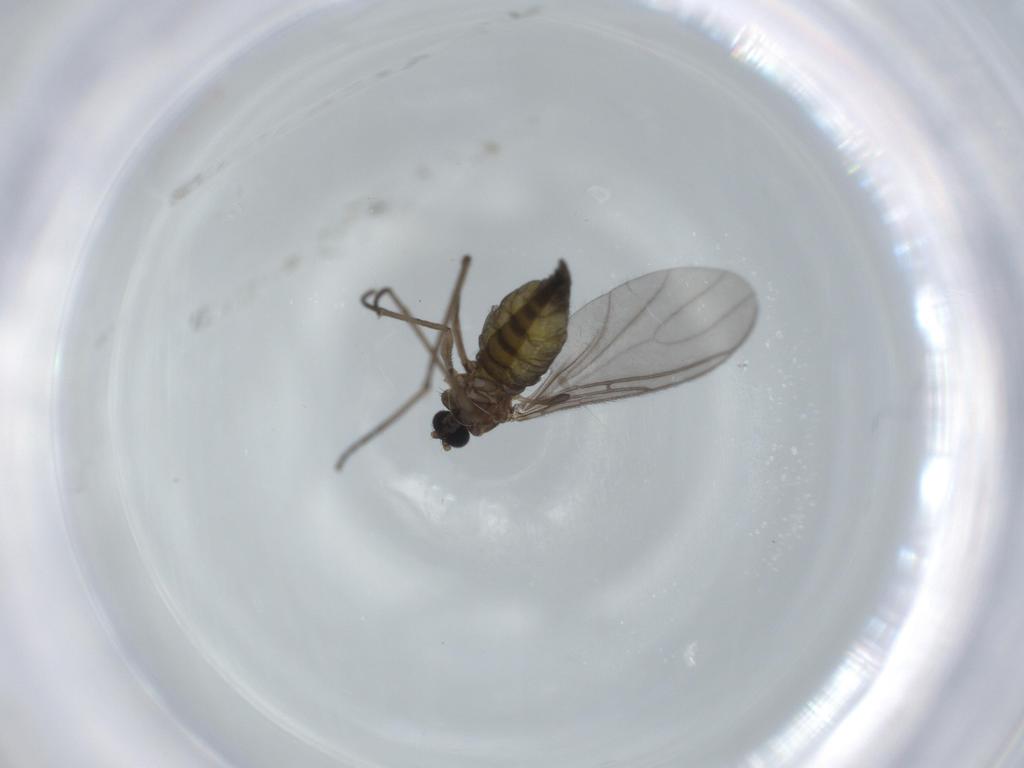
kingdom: Animalia
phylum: Arthropoda
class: Insecta
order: Diptera
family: Sciaridae
